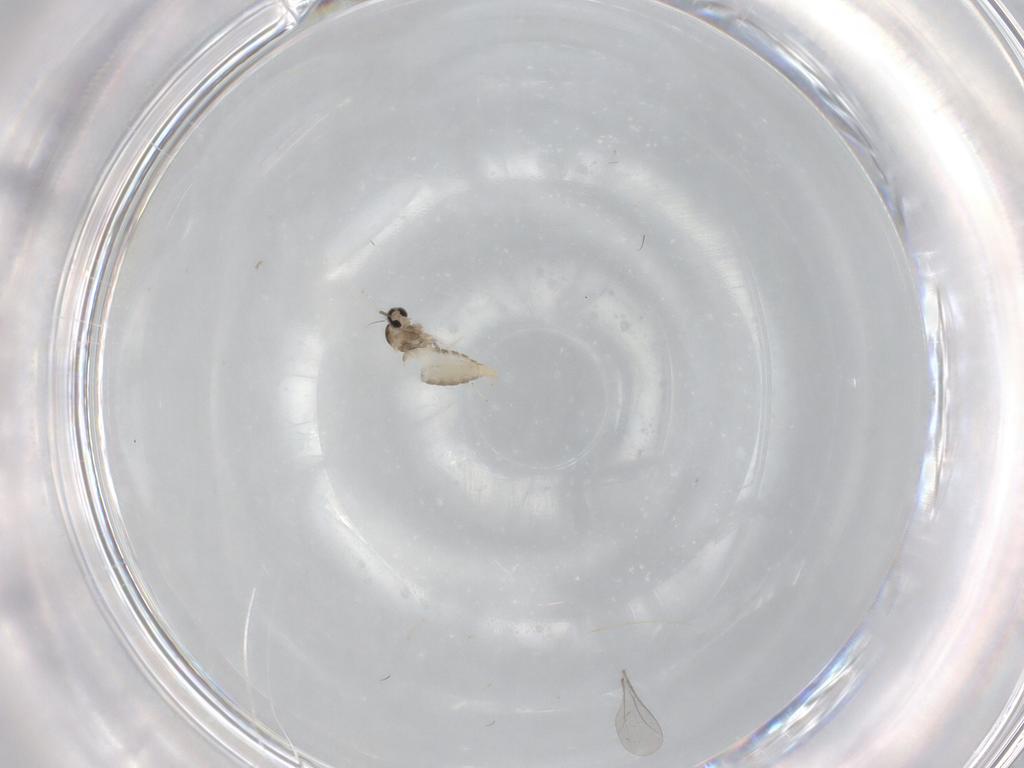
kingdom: Animalia
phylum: Arthropoda
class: Insecta
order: Diptera
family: Cecidomyiidae
